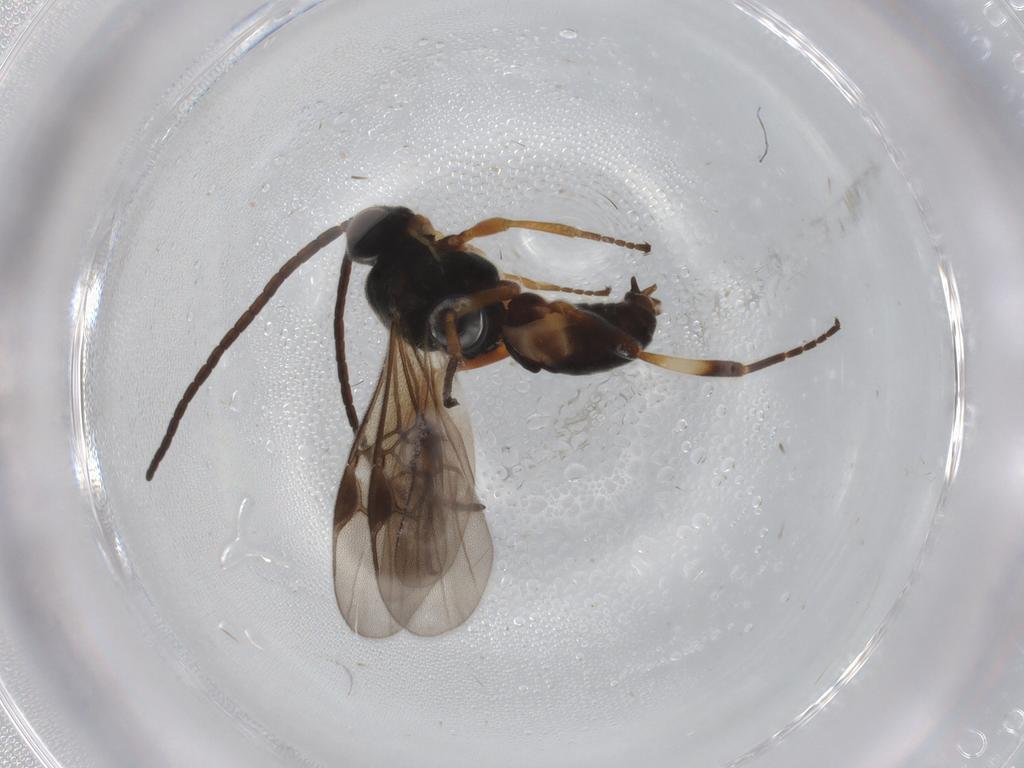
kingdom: Animalia
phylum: Arthropoda
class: Insecta
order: Hymenoptera
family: Braconidae
